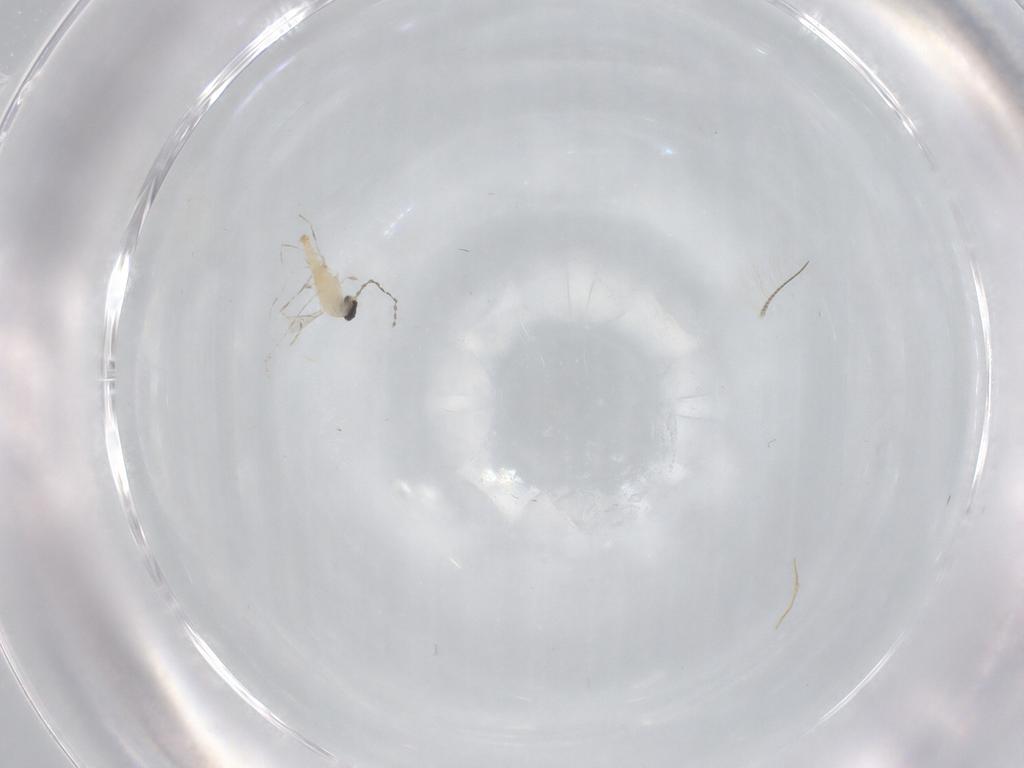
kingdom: Animalia
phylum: Arthropoda
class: Insecta
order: Diptera
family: Cecidomyiidae
